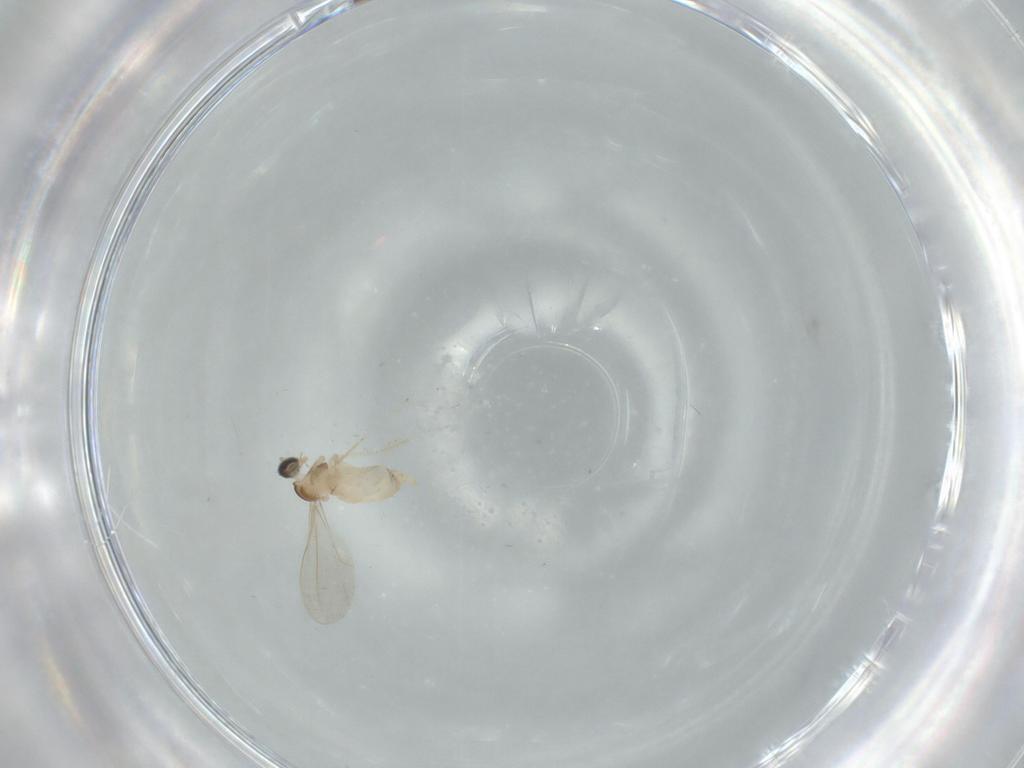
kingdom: Animalia
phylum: Arthropoda
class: Insecta
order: Diptera
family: Cecidomyiidae
